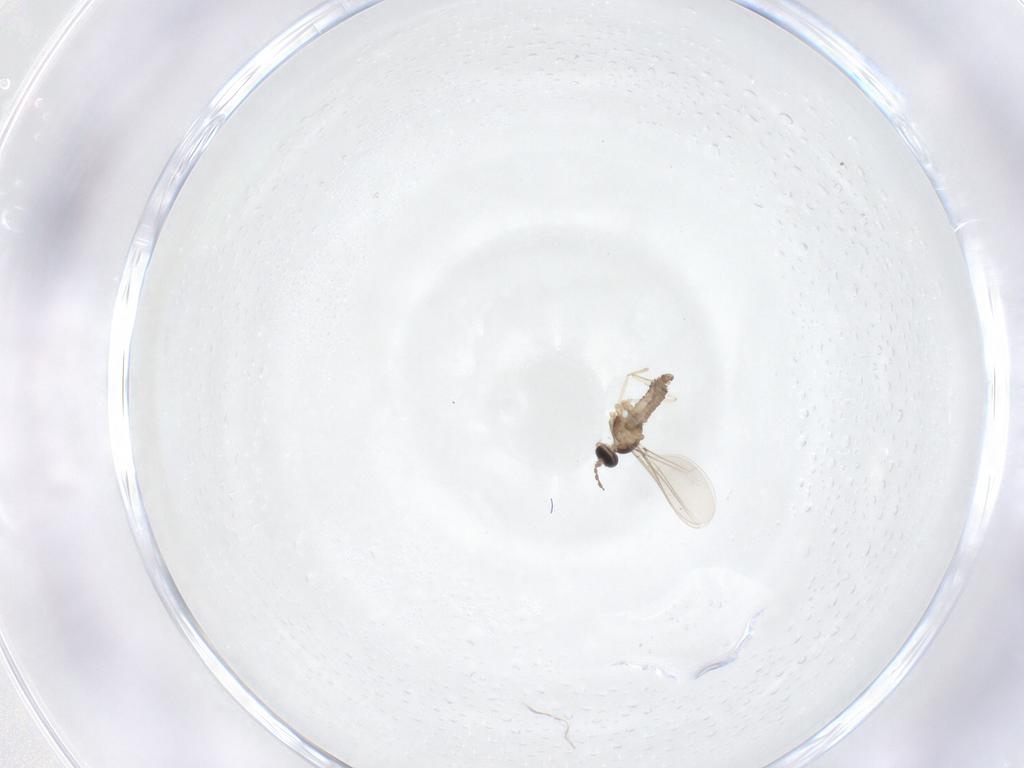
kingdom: Animalia
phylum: Arthropoda
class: Insecta
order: Diptera
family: Cecidomyiidae
